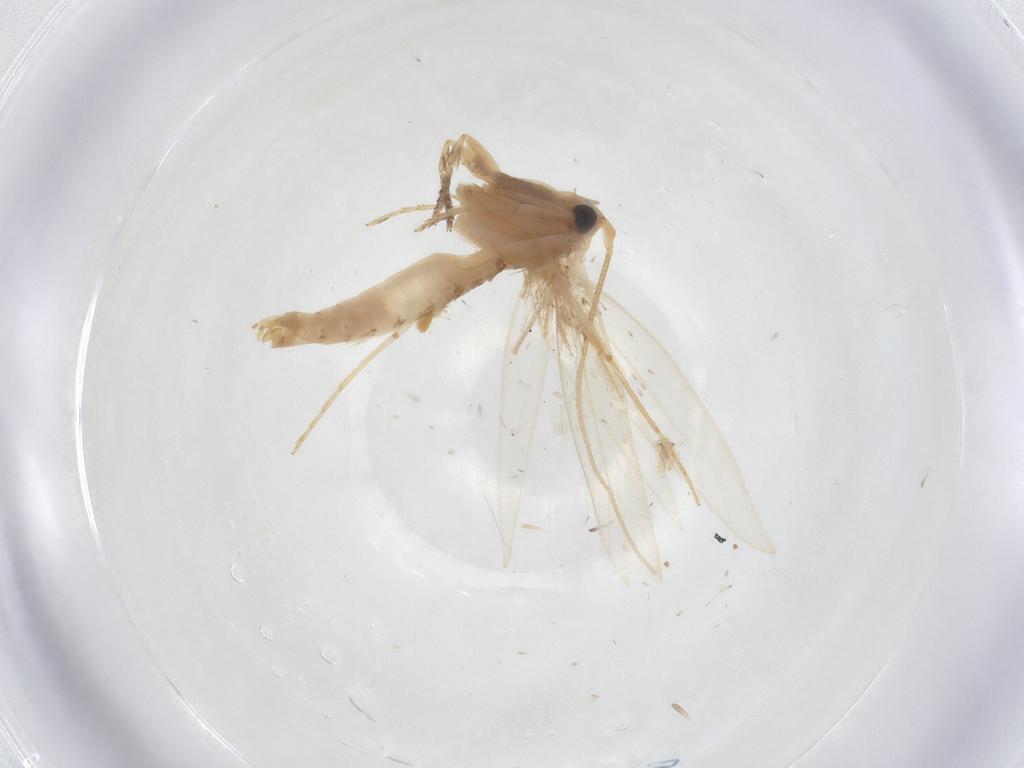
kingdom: Animalia
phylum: Arthropoda
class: Insecta
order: Lepidoptera
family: Tineidae
